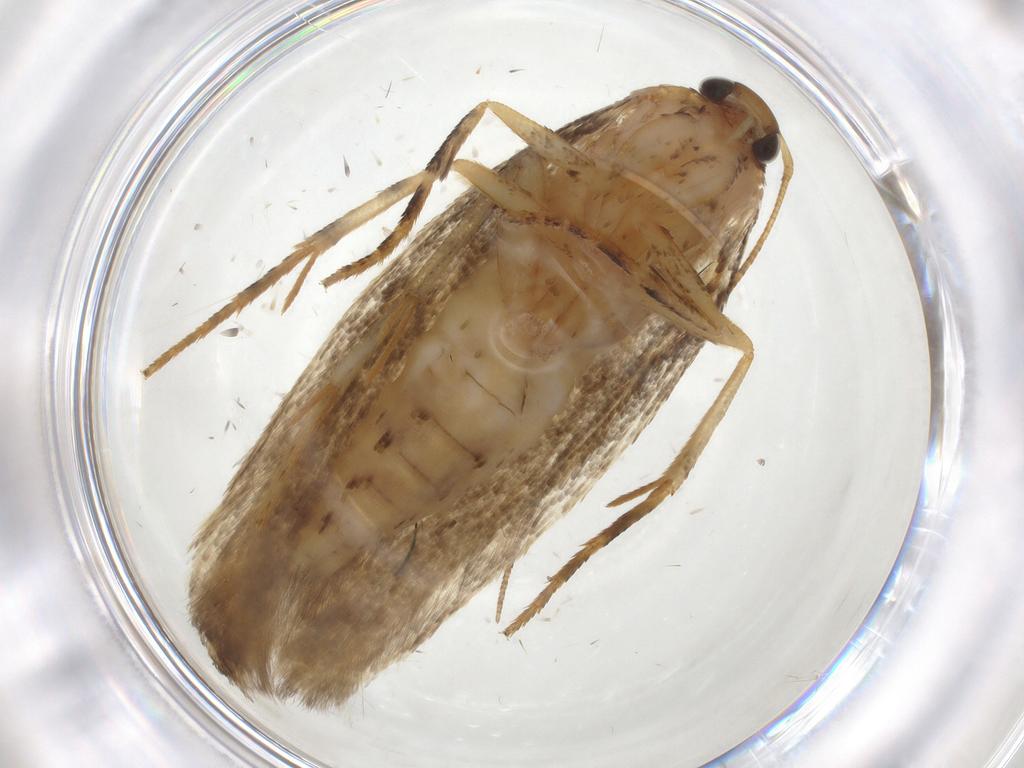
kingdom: Animalia
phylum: Arthropoda
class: Insecta
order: Lepidoptera
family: Gelechiidae
